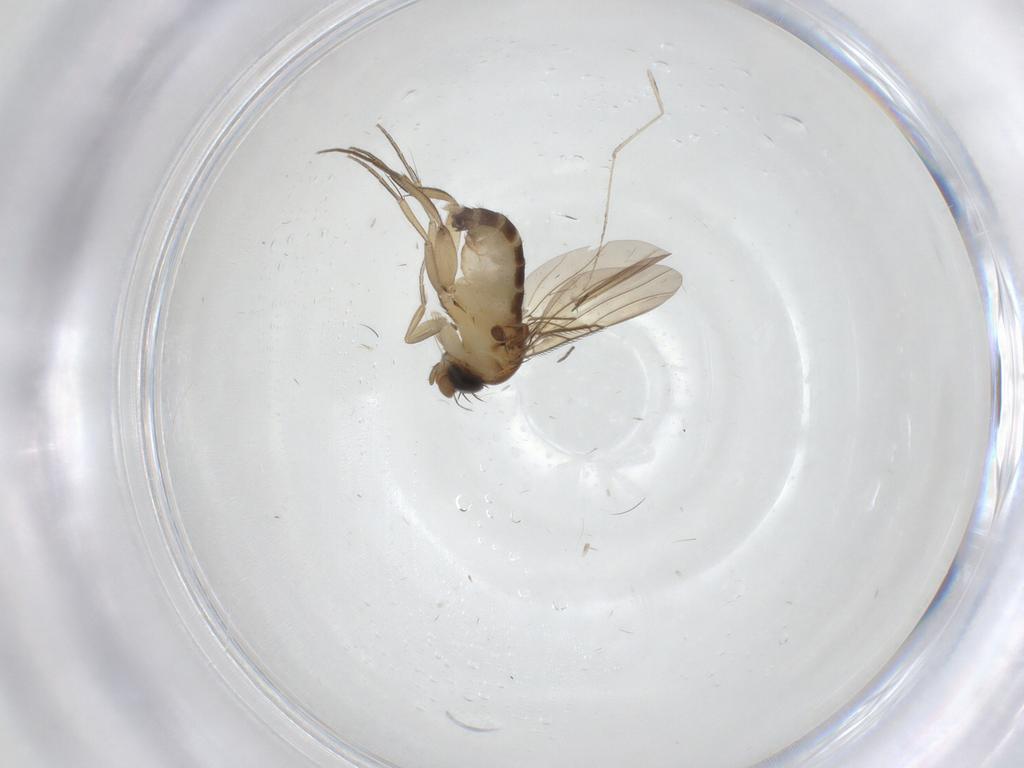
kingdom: Animalia
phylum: Arthropoda
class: Insecta
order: Diptera
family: Phoridae
